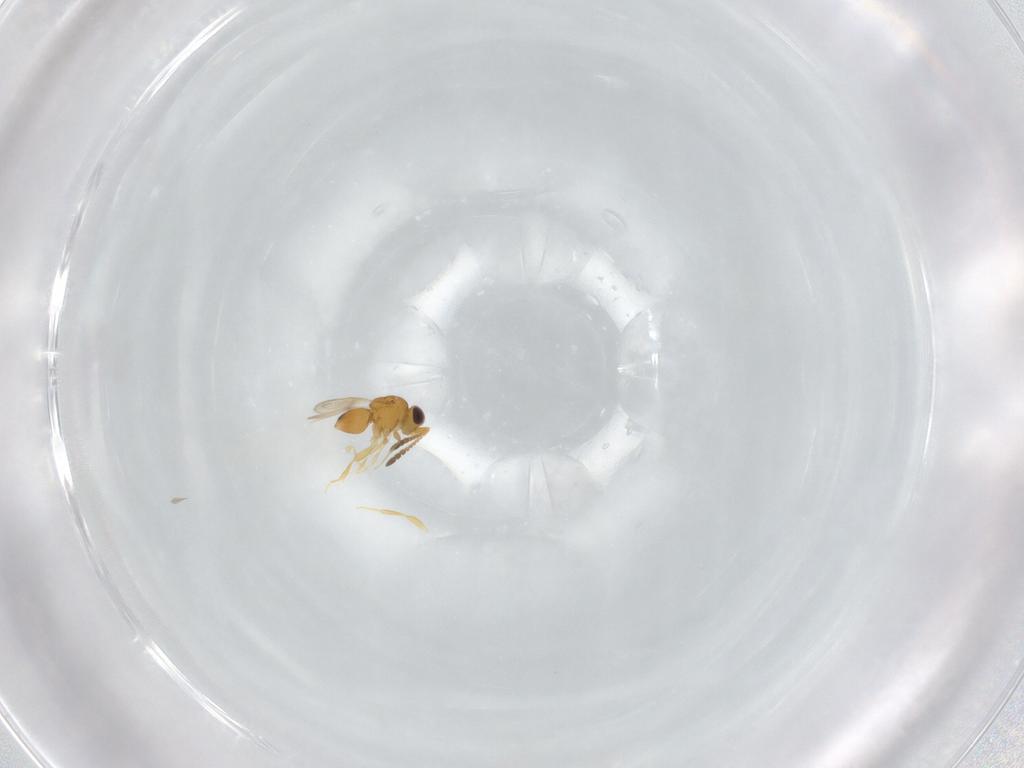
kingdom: Animalia
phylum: Arthropoda
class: Insecta
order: Hymenoptera
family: Ceraphronidae
